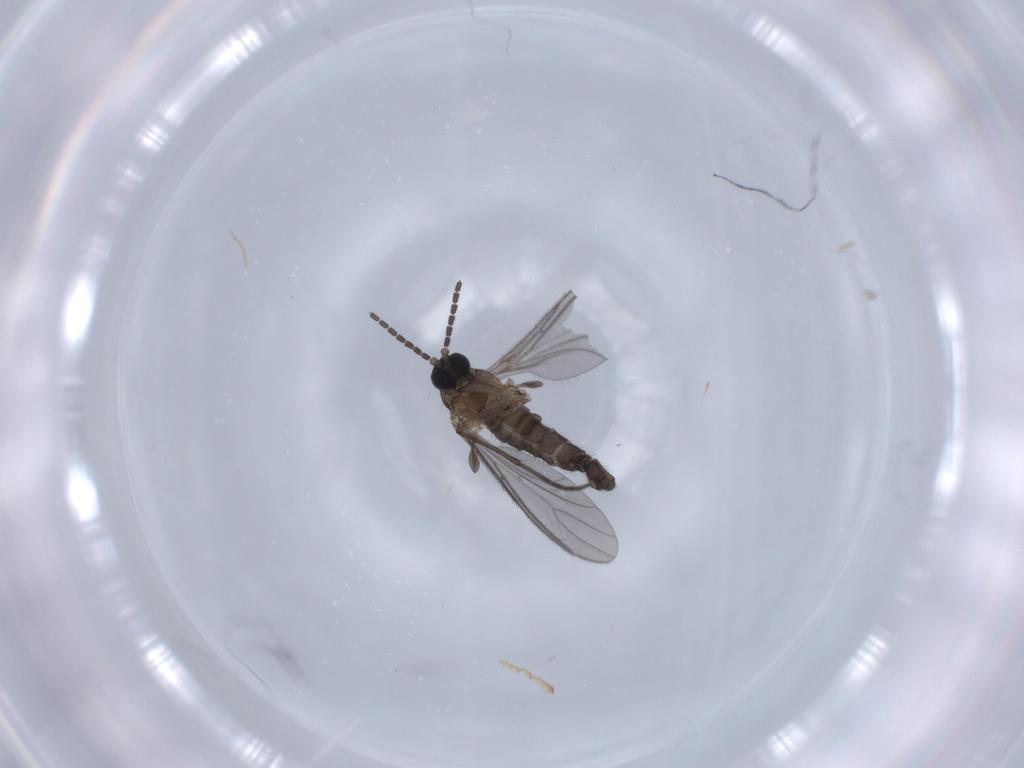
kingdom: Animalia
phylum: Arthropoda
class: Insecta
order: Diptera
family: Sciaridae
